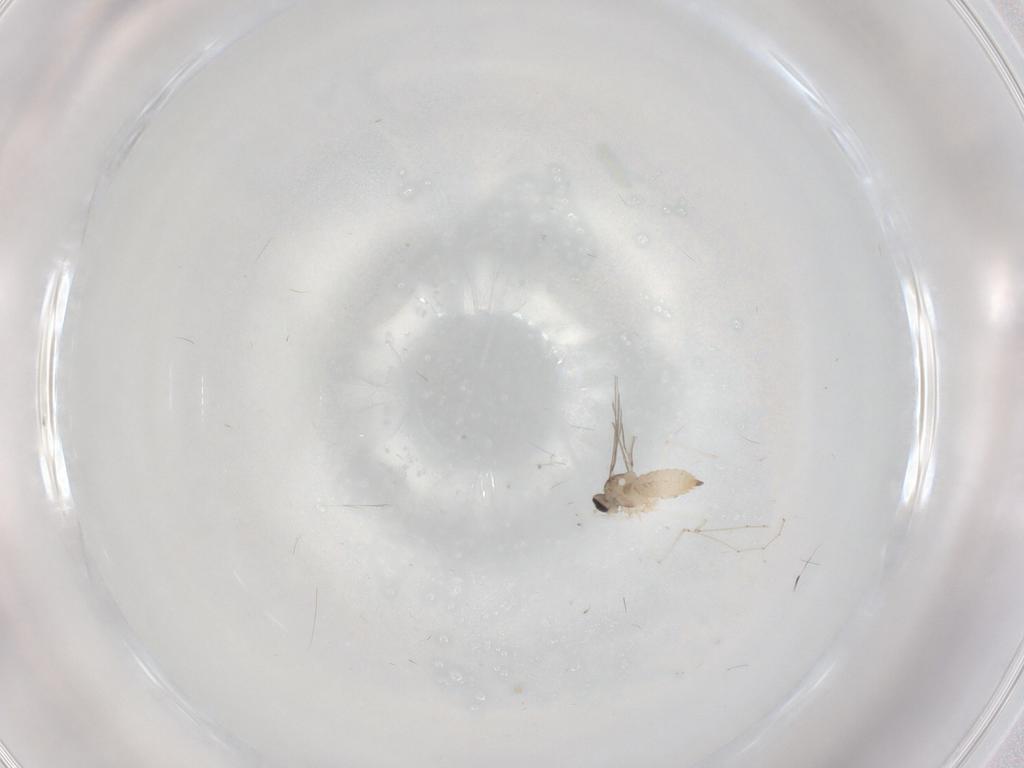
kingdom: Animalia
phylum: Arthropoda
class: Insecta
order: Diptera
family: Cecidomyiidae
